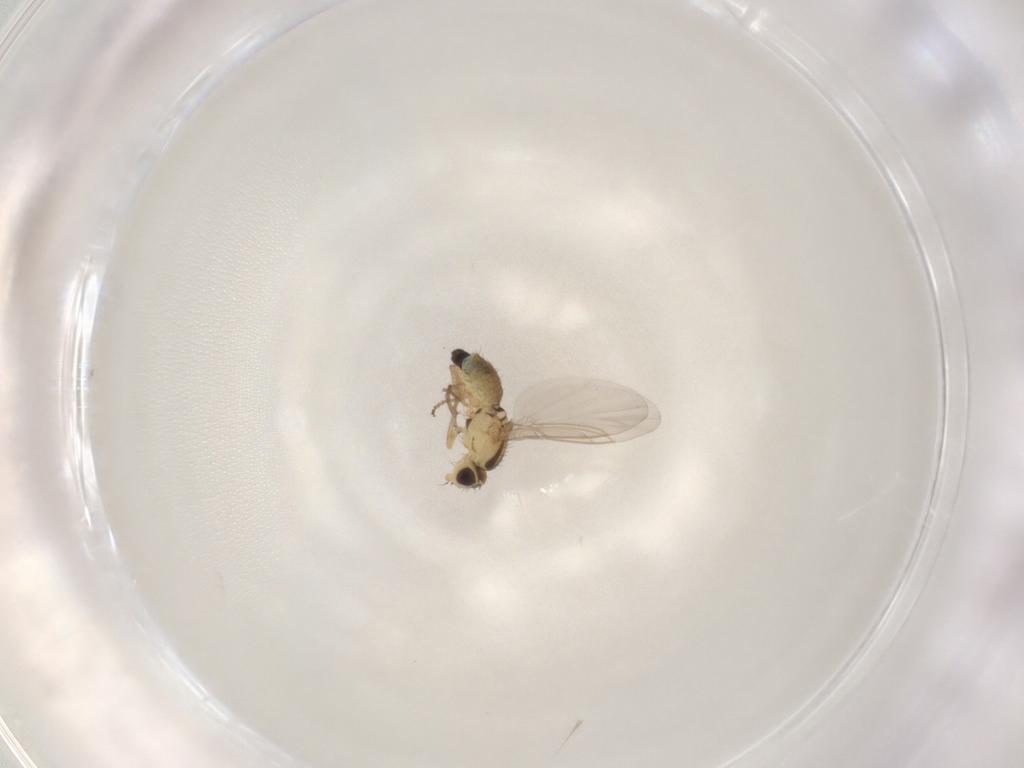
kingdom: Animalia
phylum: Arthropoda
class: Insecta
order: Diptera
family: Agromyzidae
